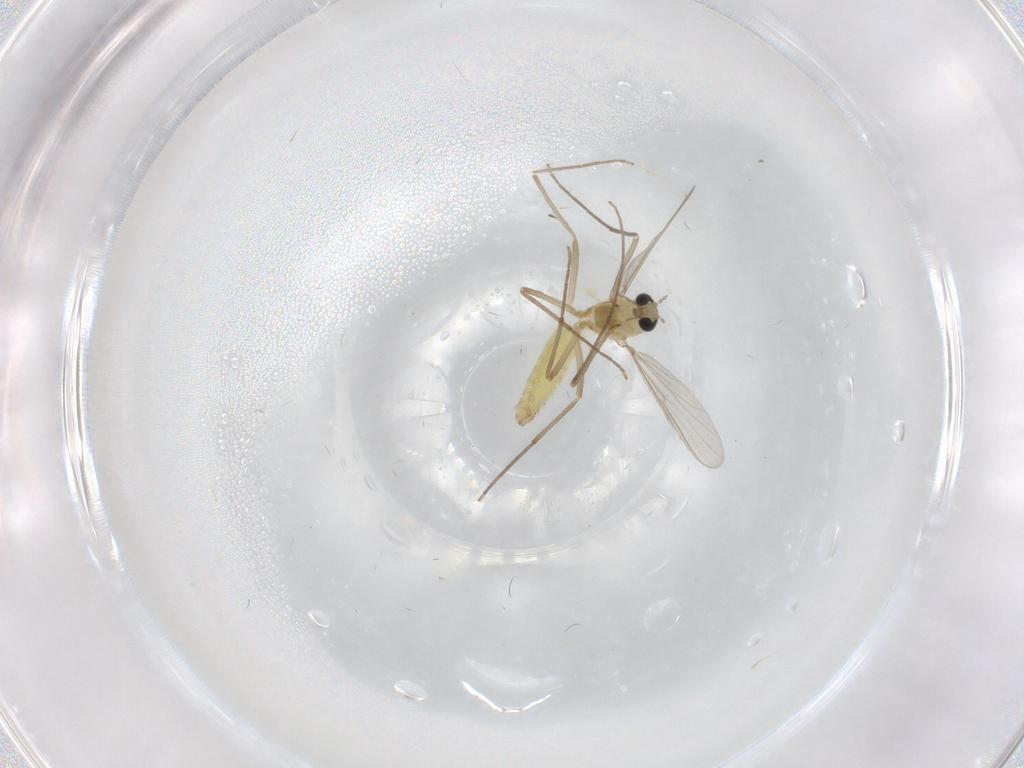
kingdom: Animalia
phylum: Arthropoda
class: Insecta
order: Diptera
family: Chironomidae
